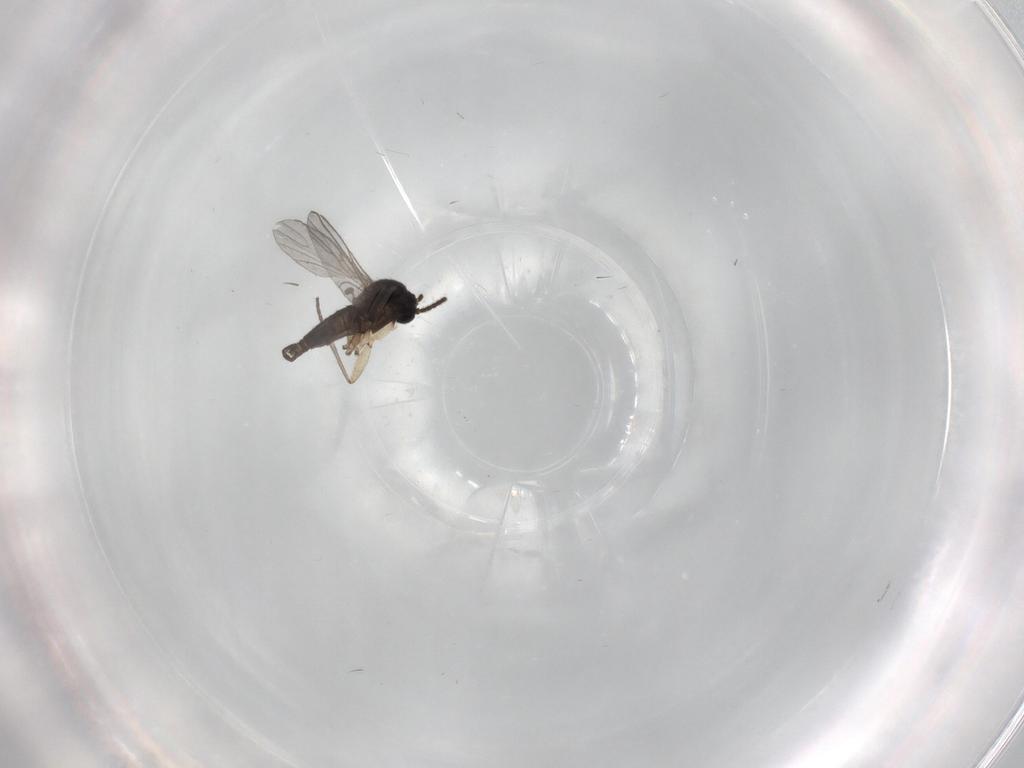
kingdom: Animalia
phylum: Arthropoda
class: Insecta
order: Diptera
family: Sciaridae
